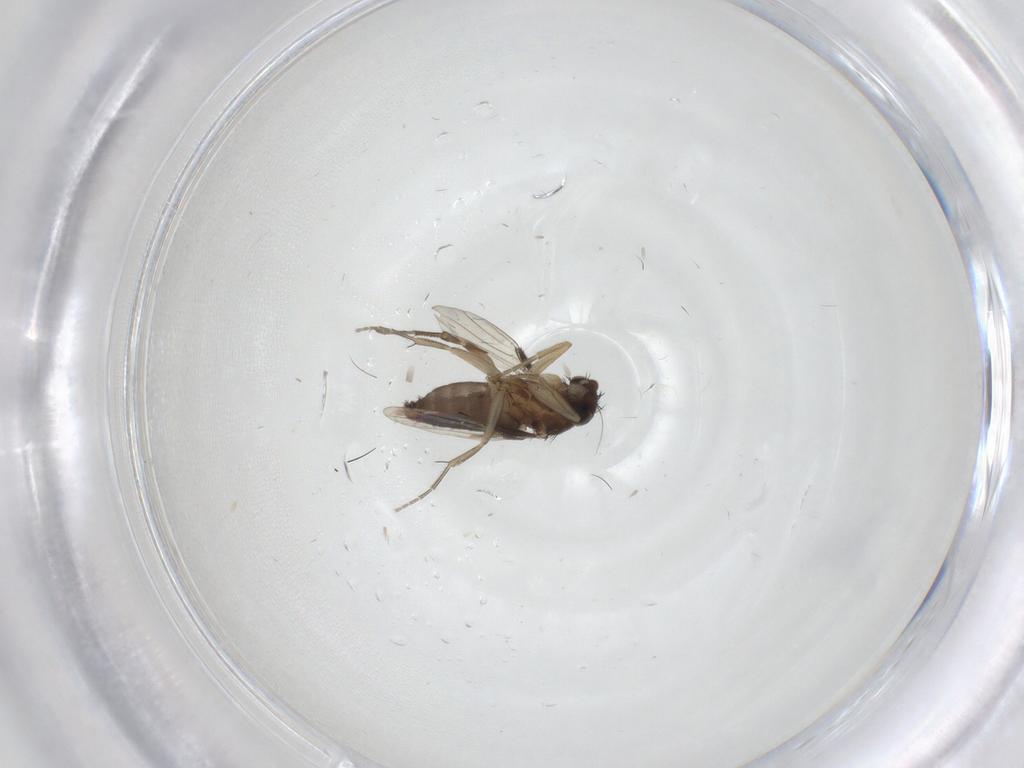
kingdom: Animalia
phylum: Arthropoda
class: Insecta
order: Diptera
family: Phoridae
